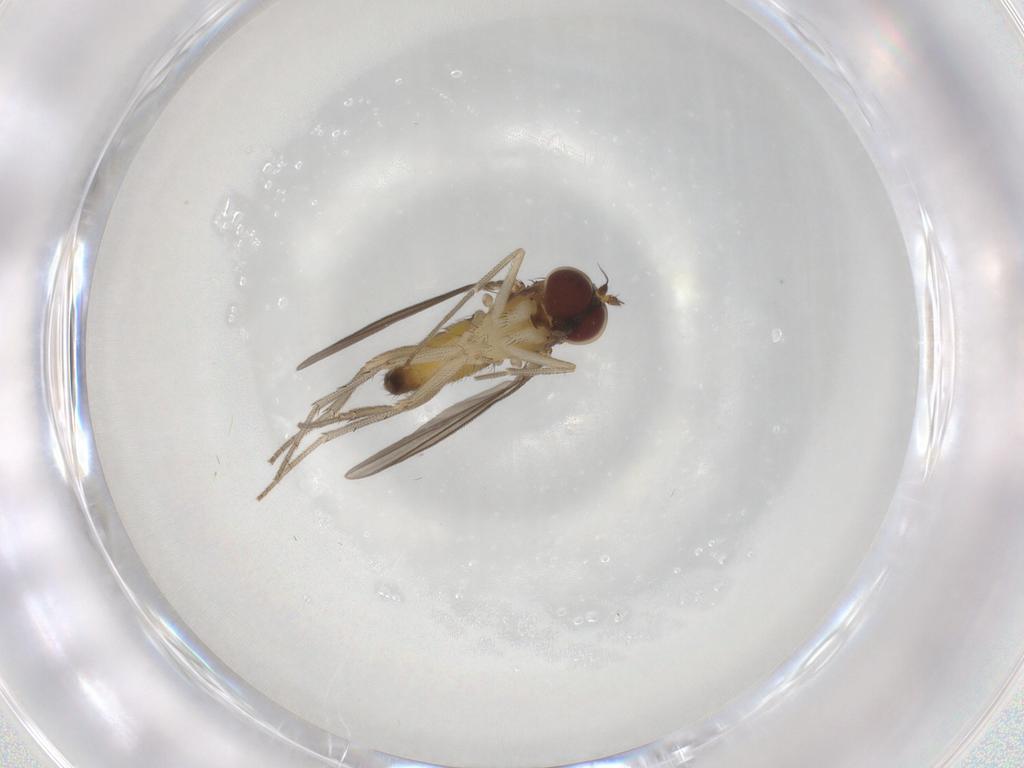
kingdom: Animalia
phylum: Arthropoda
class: Insecta
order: Diptera
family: Dolichopodidae
